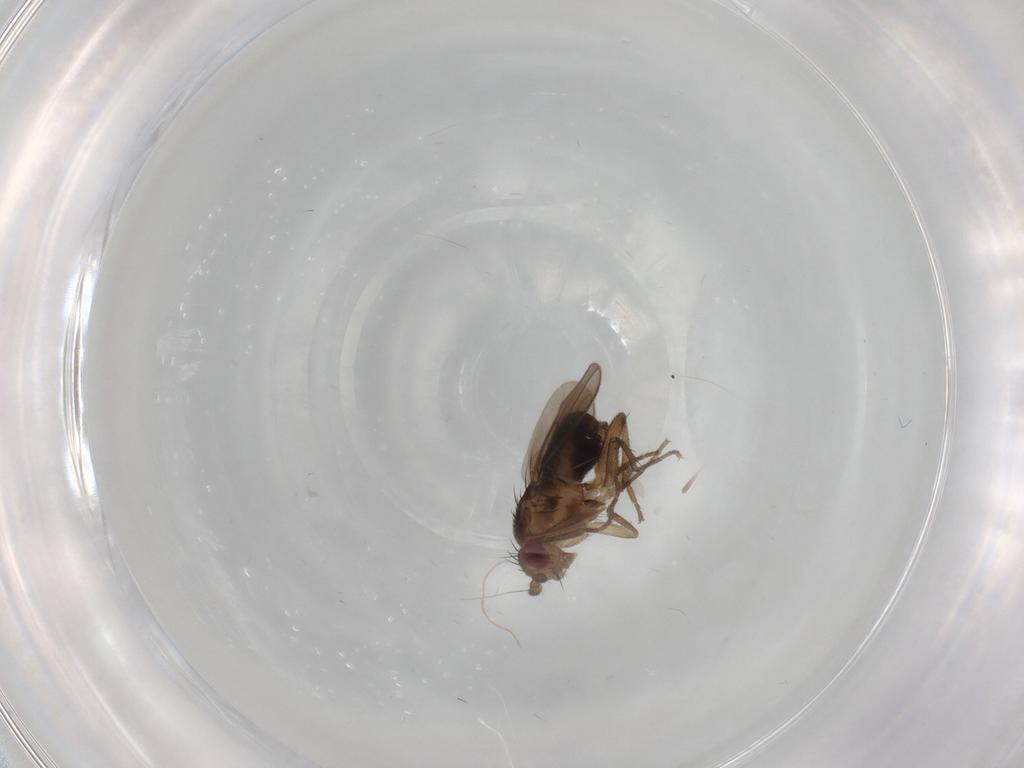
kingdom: Animalia
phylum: Arthropoda
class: Insecta
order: Diptera
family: Sphaeroceridae
